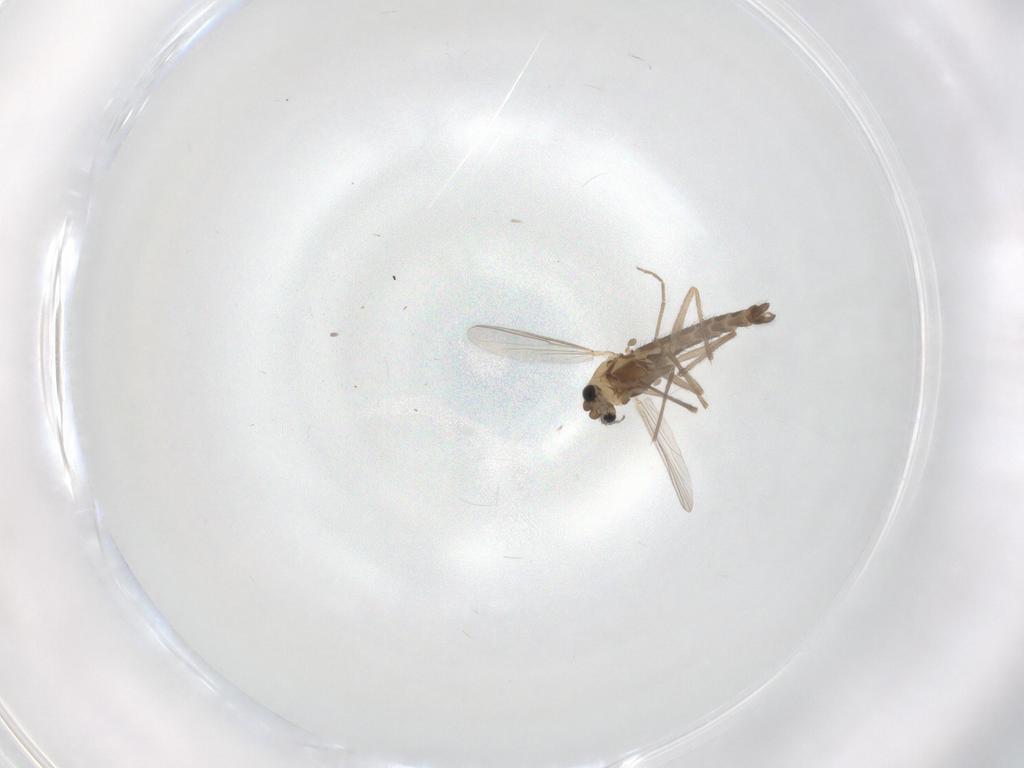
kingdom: Animalia
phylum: Arthropoda
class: Insecta
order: Diptera
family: Chironomidae
